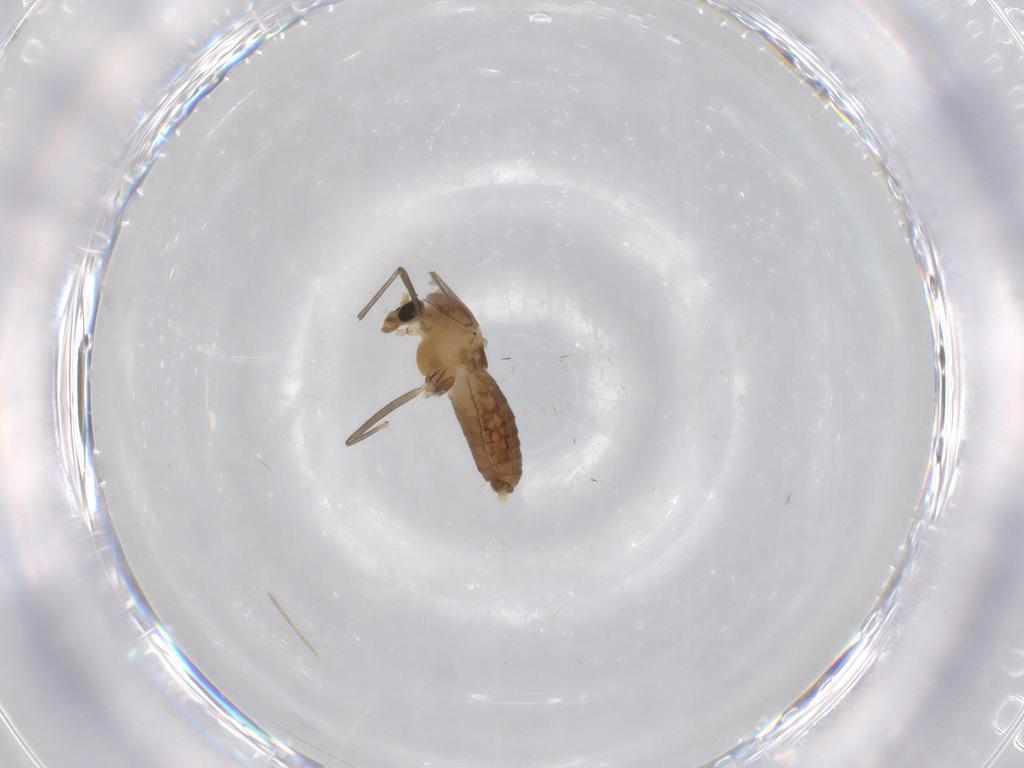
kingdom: Animalia
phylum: Arthropoda
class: Insecta
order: Diptera
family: Chironomidae
